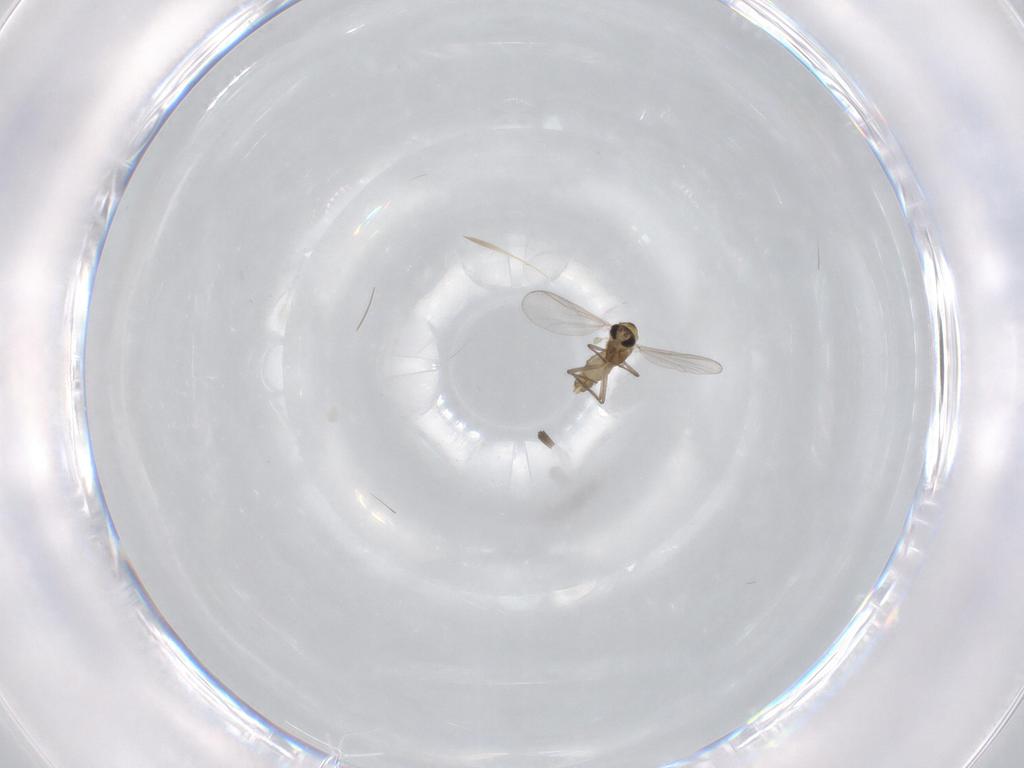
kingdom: Animalia
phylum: Arthropoda
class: Insecta
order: Diptera
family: Chironomidae
